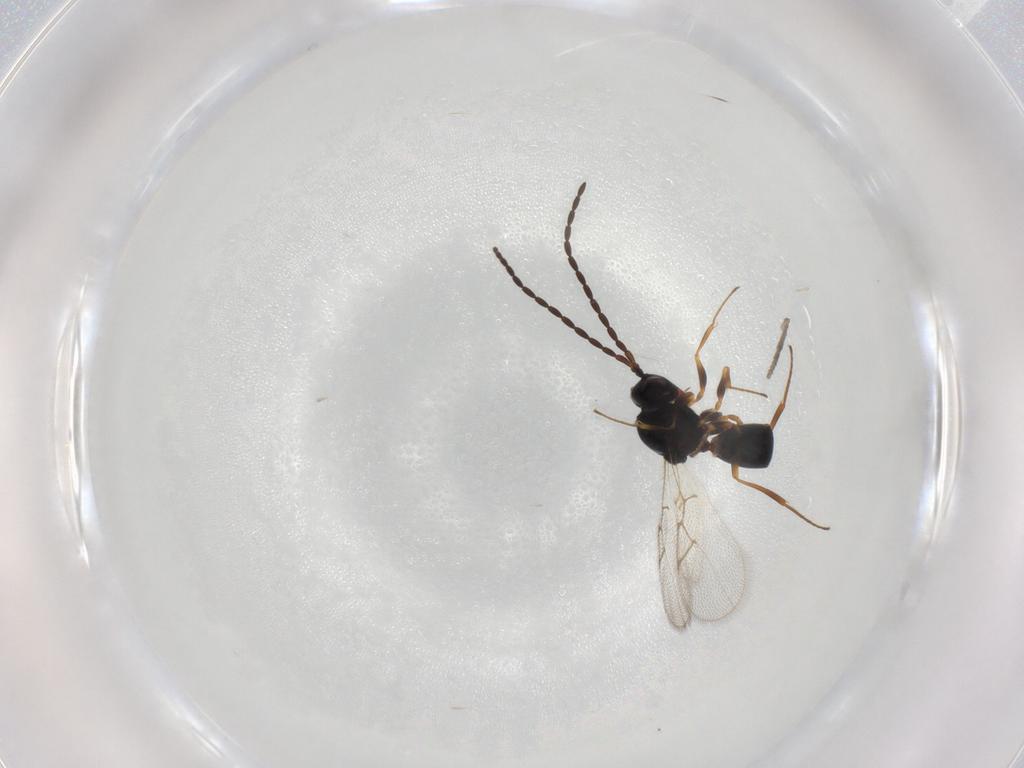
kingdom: Animalia
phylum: Arthropoda
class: Insecta
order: Hymenoptera
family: Figitidae
